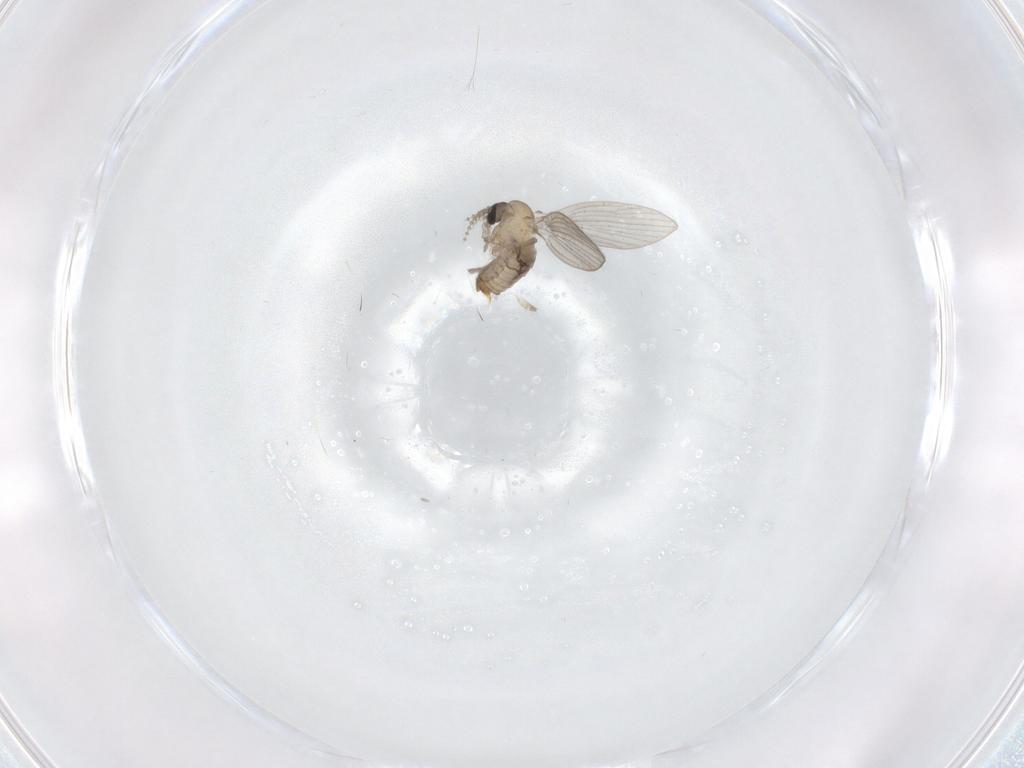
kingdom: Animalia
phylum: Arthropoda
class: Insecta
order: Diptera
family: Psychodidae
